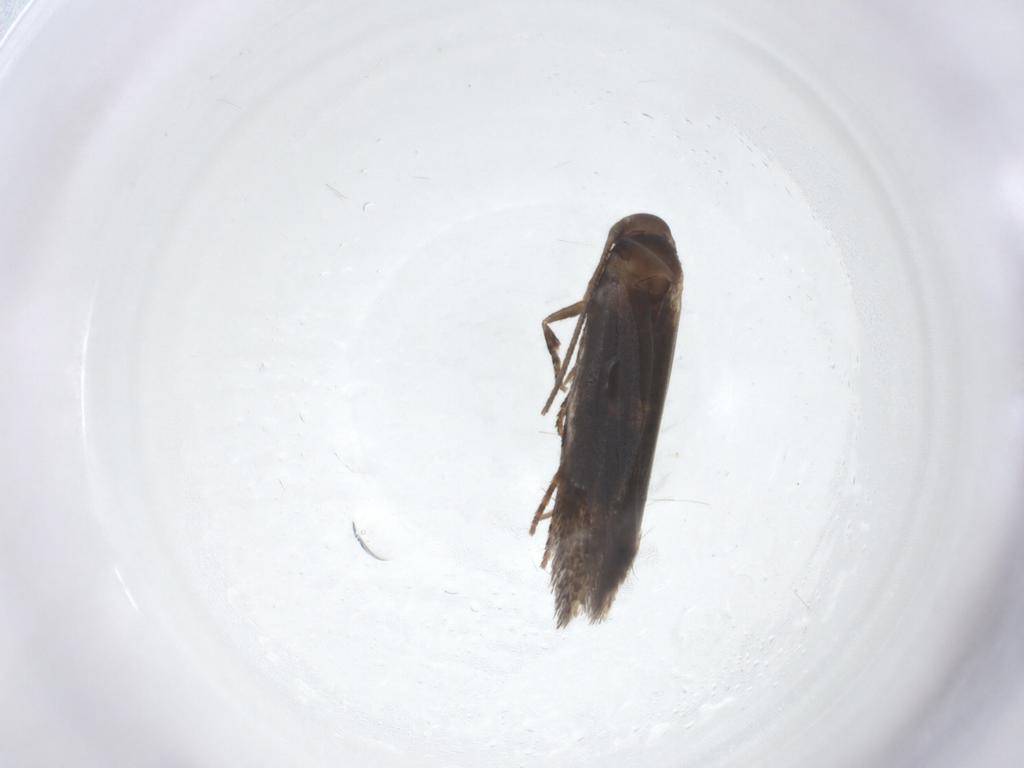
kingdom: Animalia
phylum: Arthropoda
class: Insecta
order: Lepidoptera
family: Elachistidae
